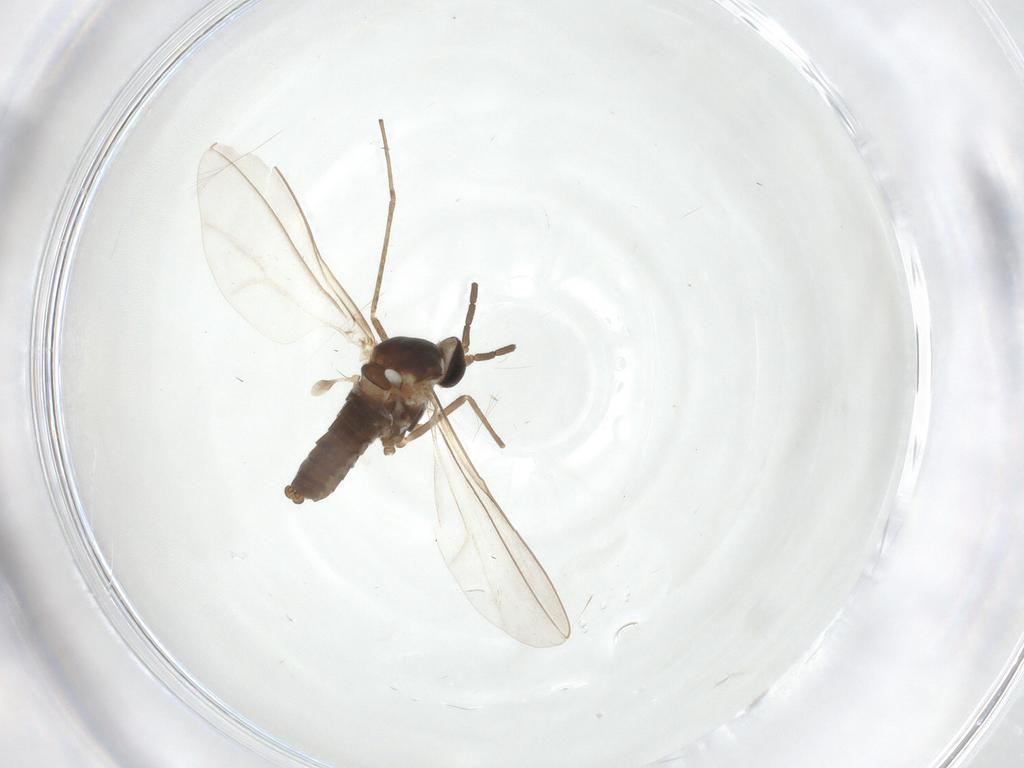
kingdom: Animalia
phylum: Arthropoda
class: Insecta
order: Diptera
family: Cecidomyiidae
